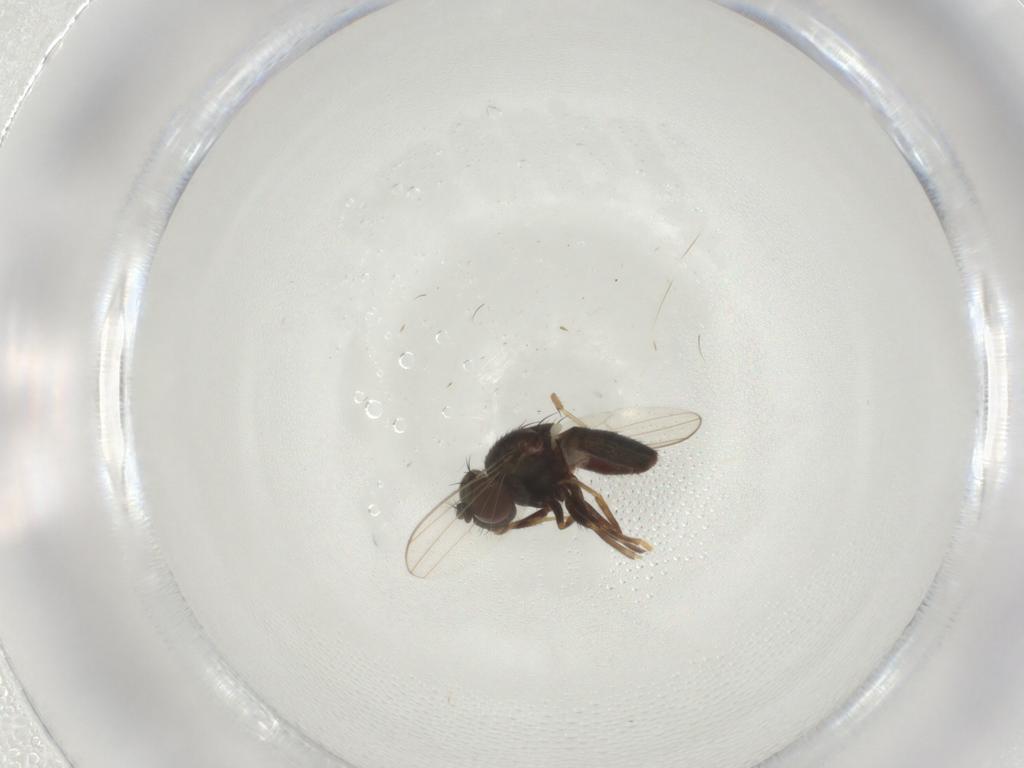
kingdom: Animalia
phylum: Arthropoda
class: Insecta
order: Diptera
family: Ephydridae
